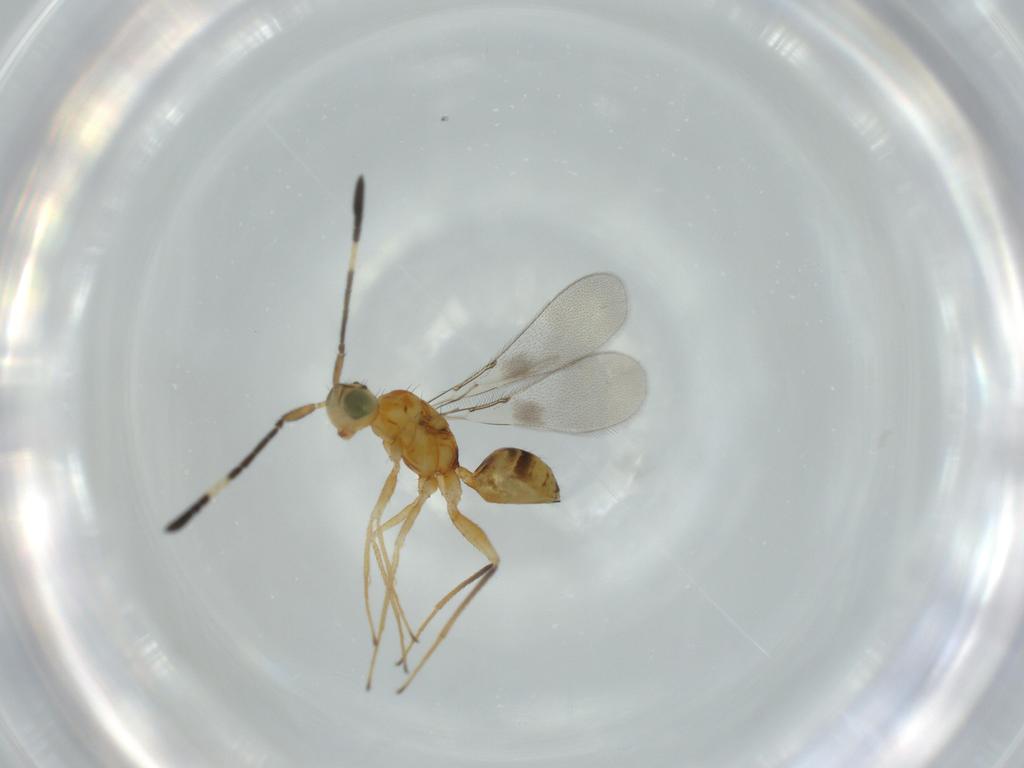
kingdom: Animalia
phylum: Arthropoda
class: Insecta
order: Hymenoptera
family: Mymaridae
